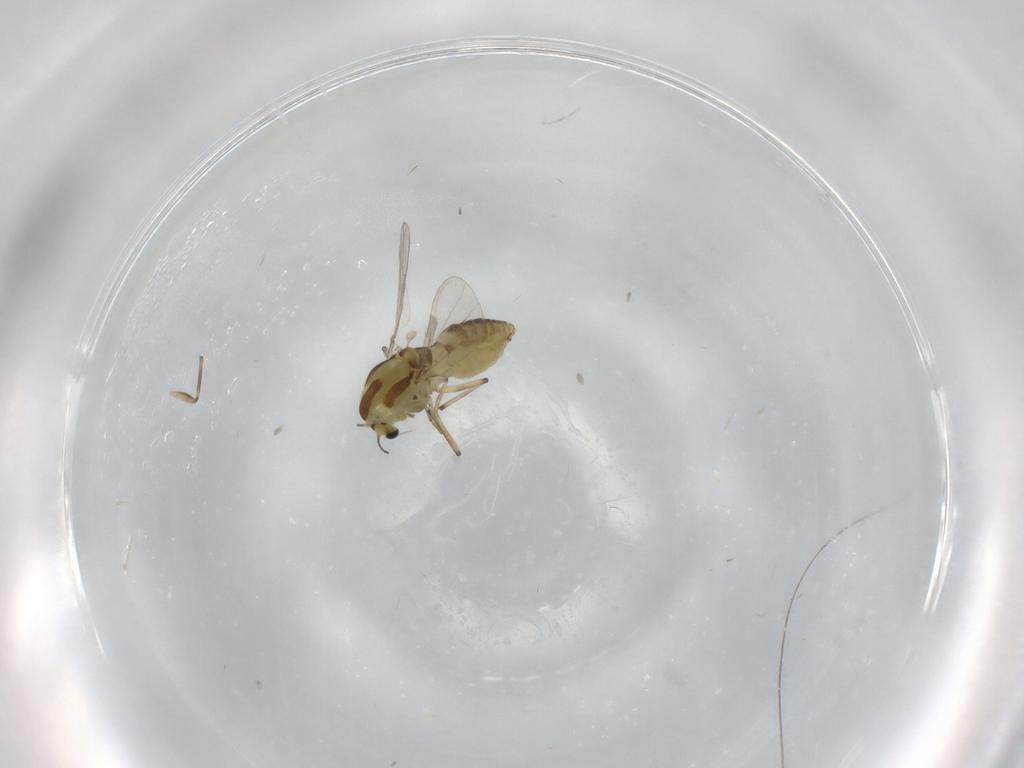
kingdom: Animalia
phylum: Arthropoda
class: Insecta
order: Diptera
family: Chironomidae
